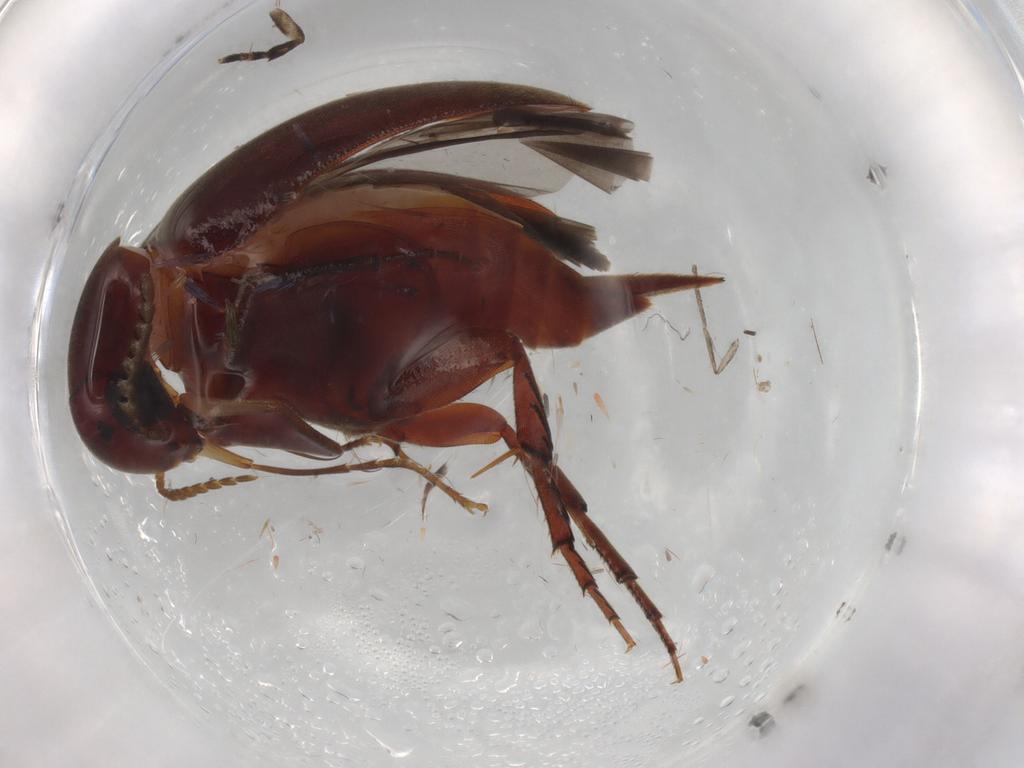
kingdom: Animalia
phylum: Arthropoda
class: Insecta
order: Coleoptera
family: Mordellidae
